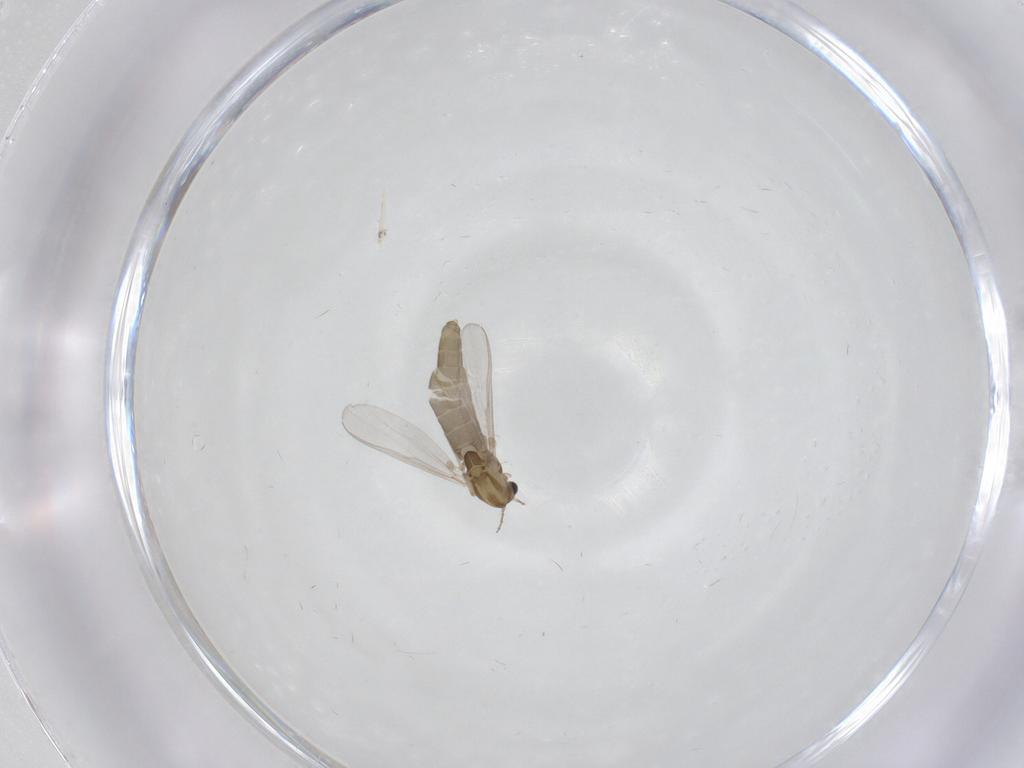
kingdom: Animalia
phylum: Arthropoda
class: Insecta
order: Diptera
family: Chironomidae
